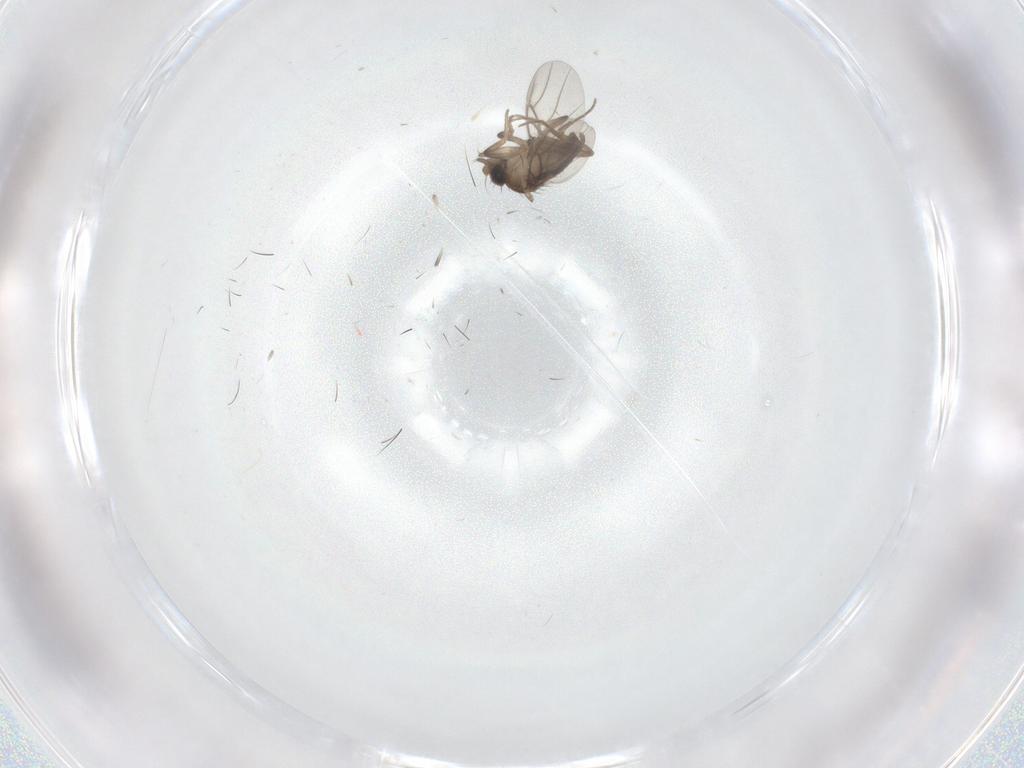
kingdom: Animalia
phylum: Arthropoda
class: Insecta
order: Diptera
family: Sciaridae
